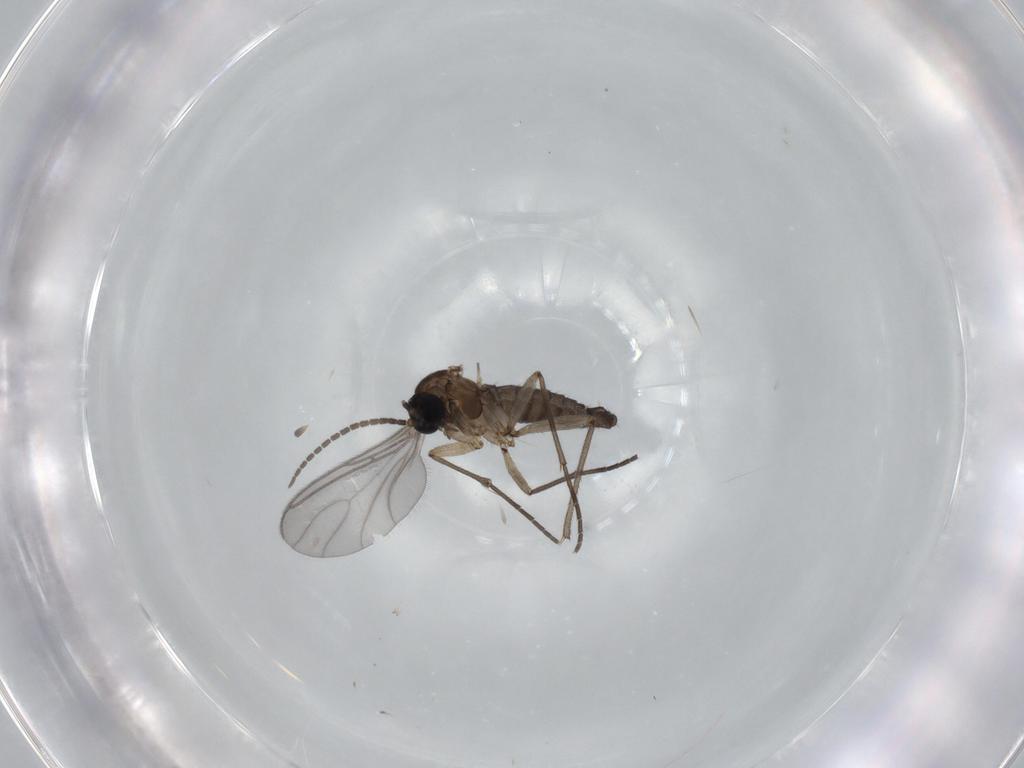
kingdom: Animalia
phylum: Arthropoda
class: Insecta
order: Diptera
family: Sciaridae
